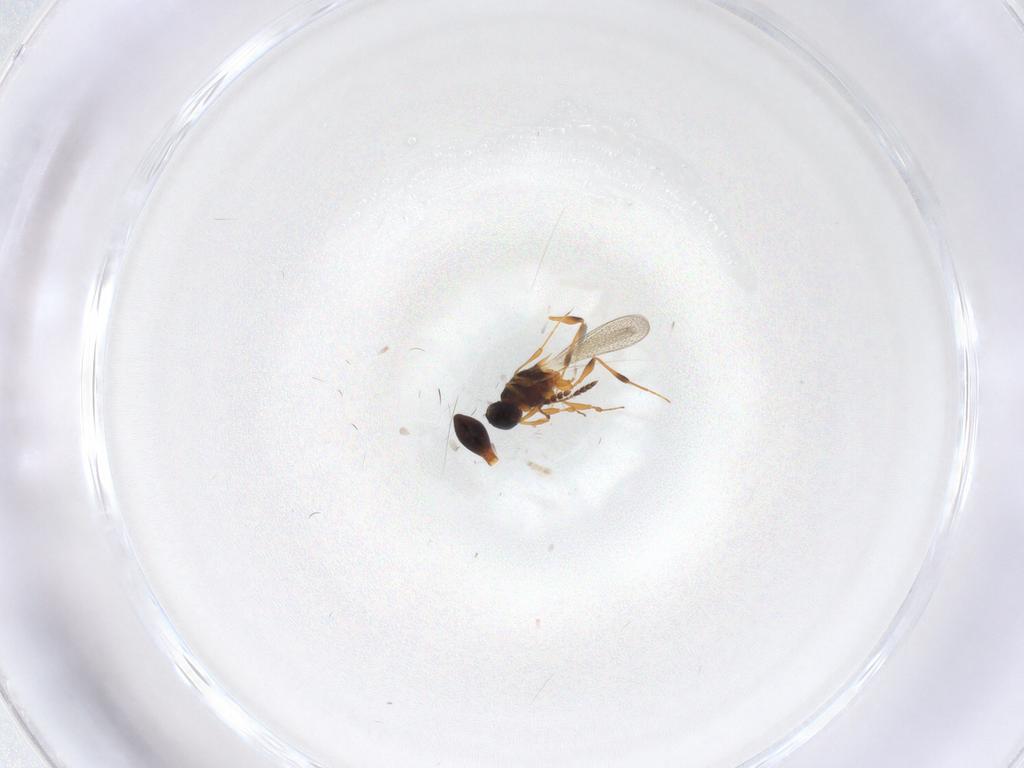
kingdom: Animalia
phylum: Arthropoda
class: Insecta
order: Hymenoptera
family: Platygastridae
